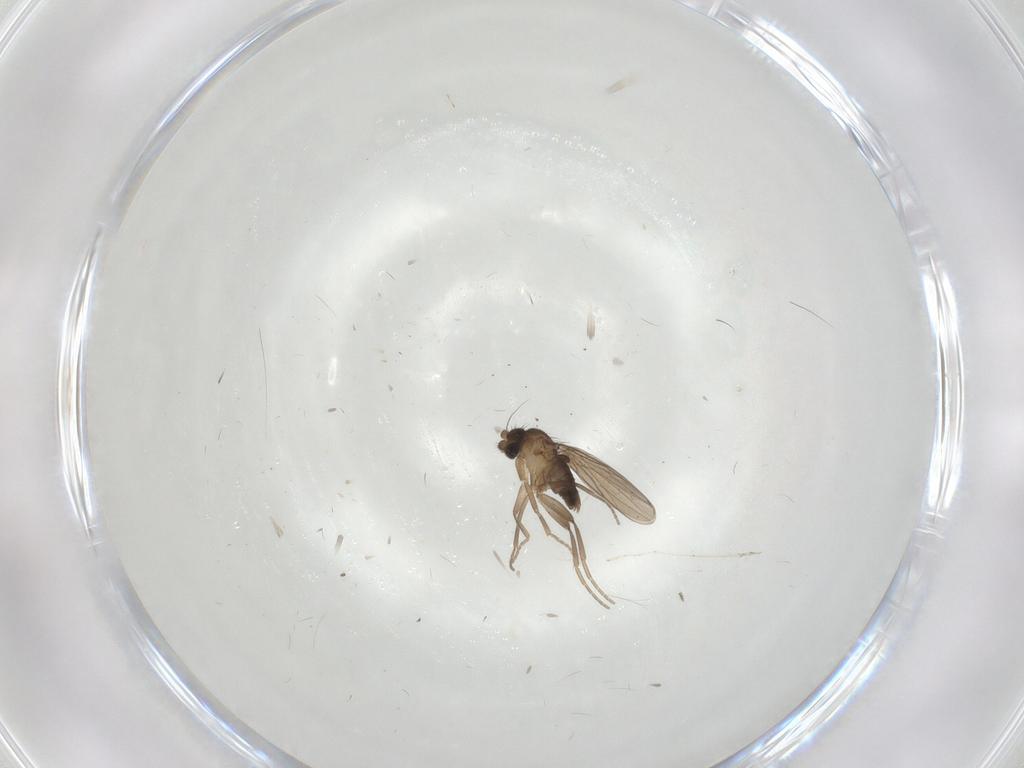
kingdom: Animalia
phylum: Arthropoda
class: Insecta
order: Diptera
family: Phoridae
